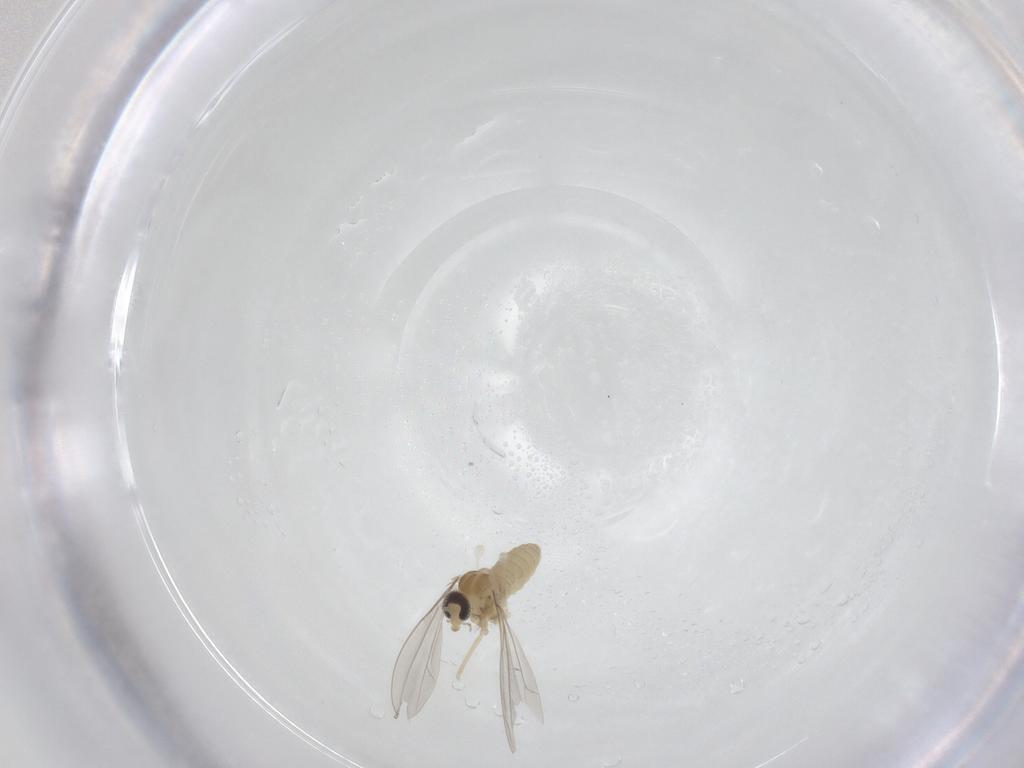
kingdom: Animalia
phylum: Arthropoda
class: Insecta
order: Diptera
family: Cecidomyiidae
